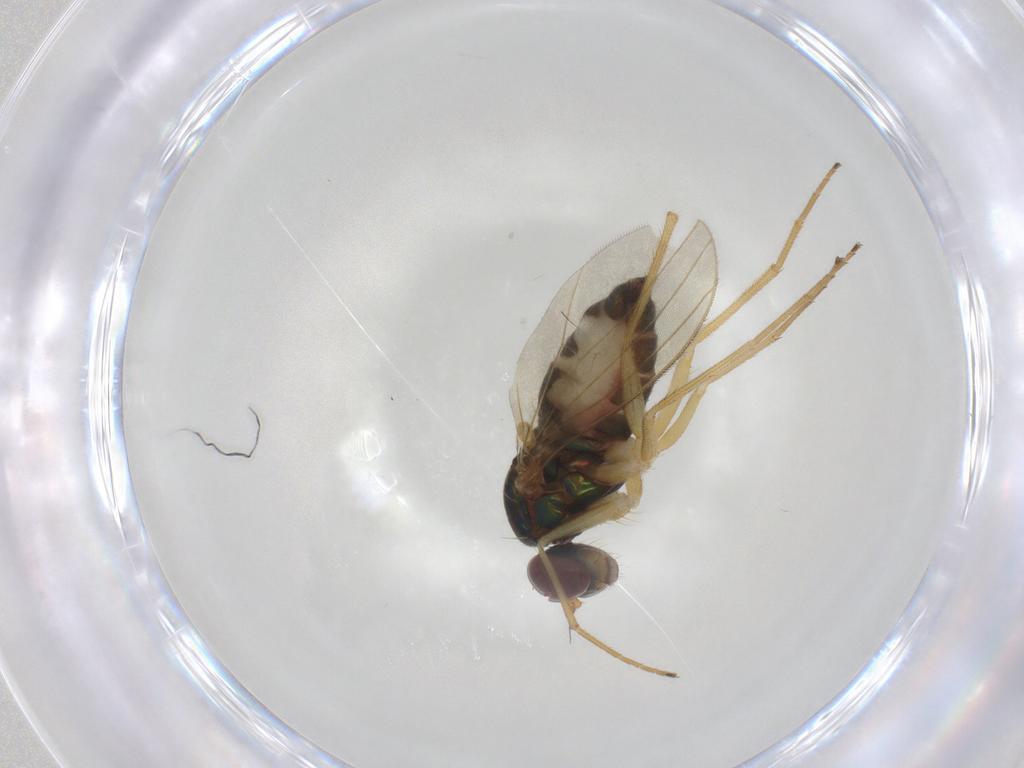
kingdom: Animalia
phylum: Arthropoda
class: Insecta
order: Diptera
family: Dolichopodidae
